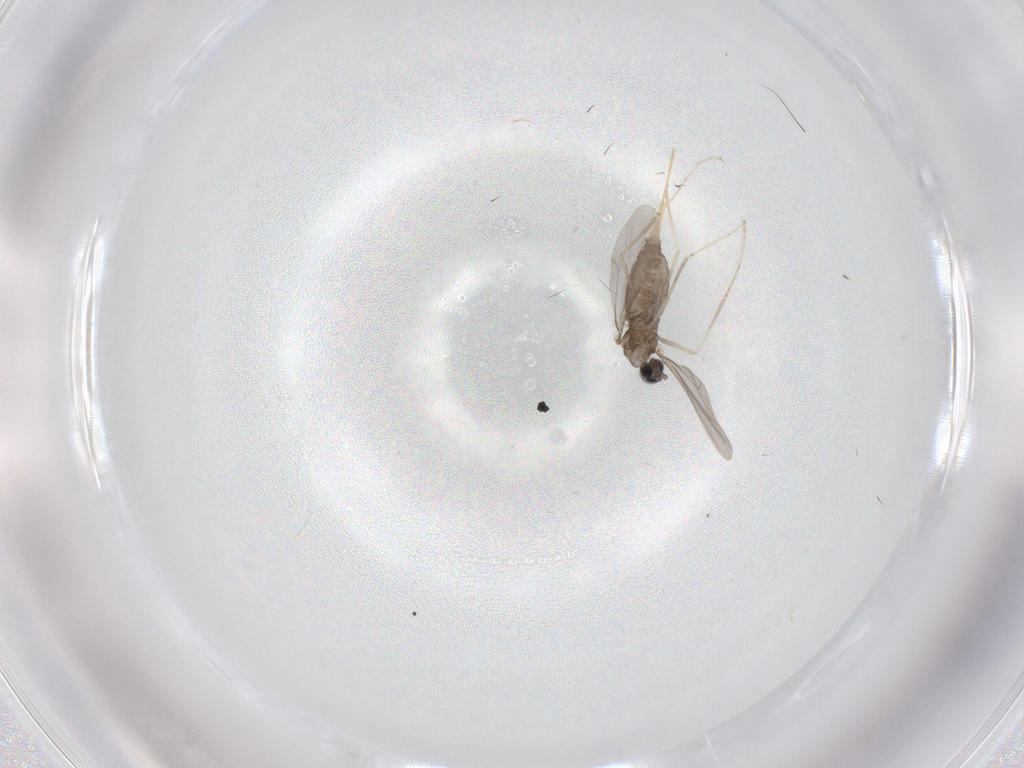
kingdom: Animalia
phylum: Arthropoda
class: Insecta
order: Diptera
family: Cecidomyiidae
